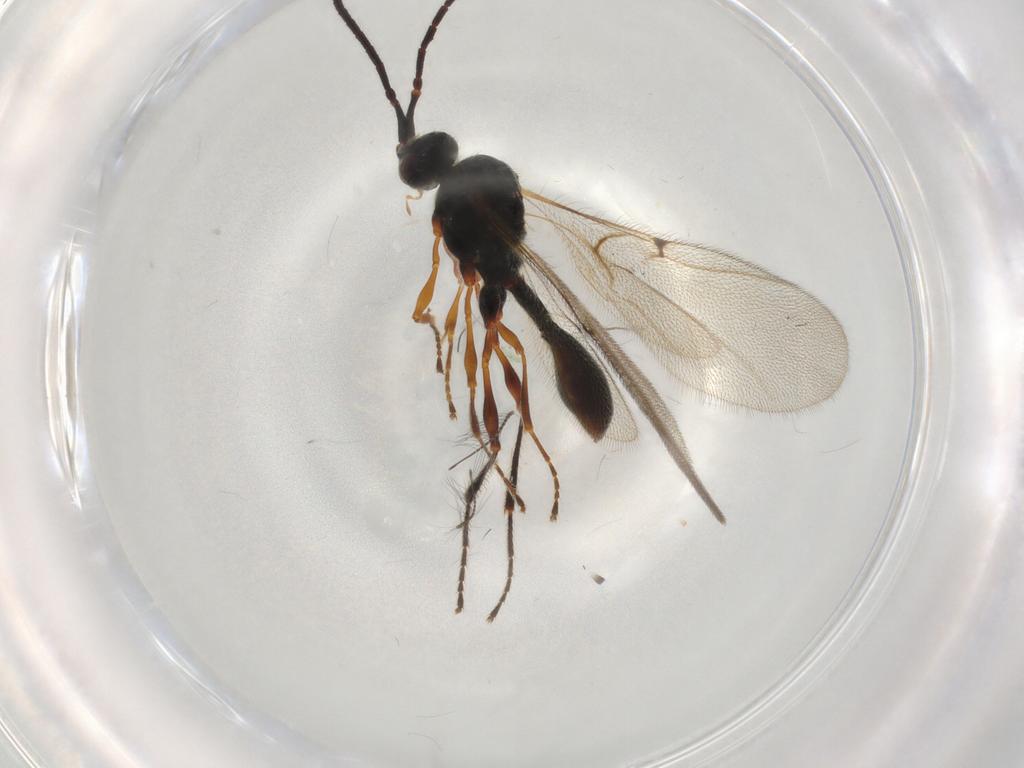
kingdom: Animalia
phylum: Arthropoda
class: Insecta
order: Hymenoptera
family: Diapriidae
